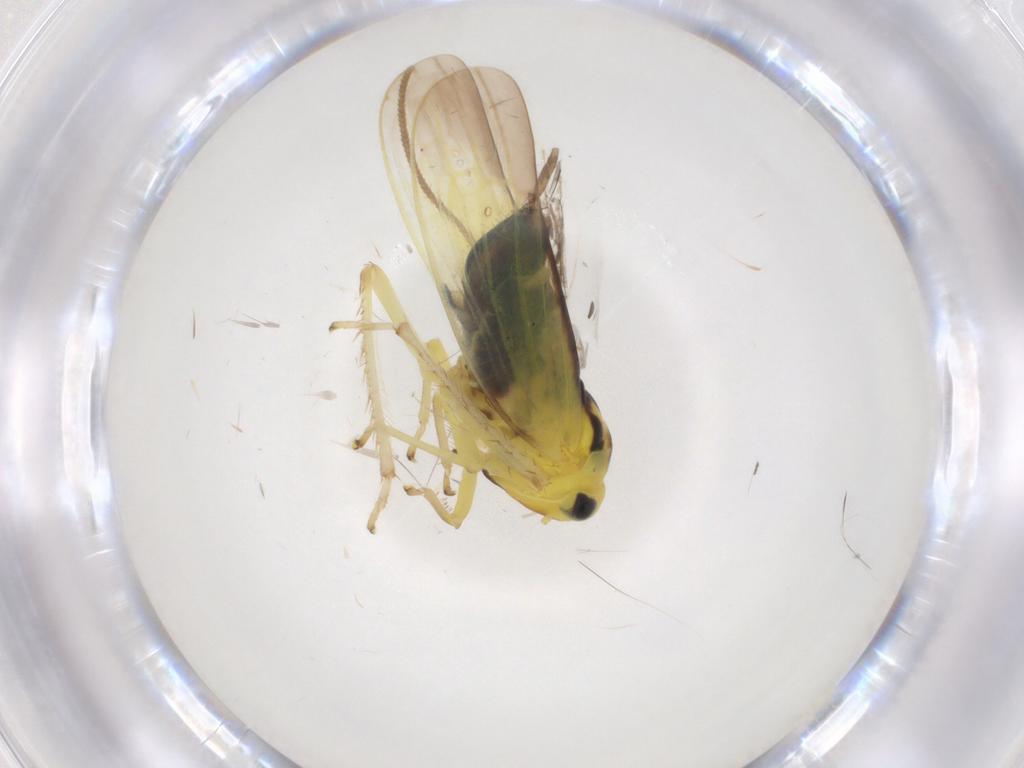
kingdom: Animalia
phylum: Arthropoda
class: Insecta
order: Hemiptera
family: Cicadellidae
